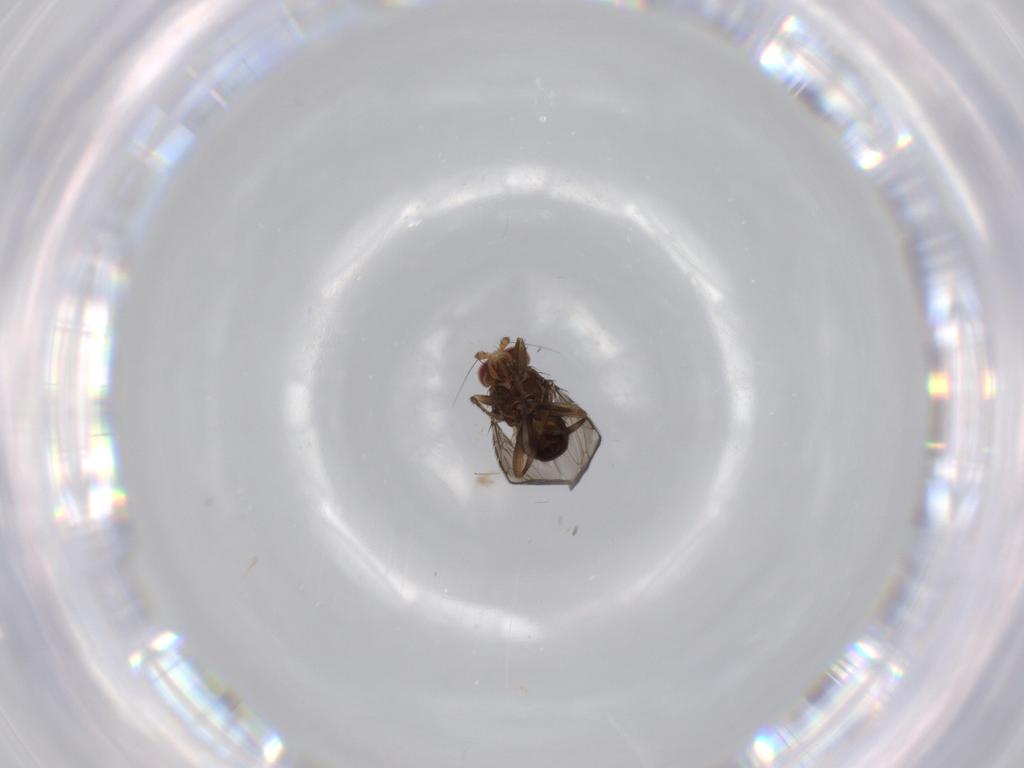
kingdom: Animalia
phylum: Arthropoda
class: Insecta
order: Diptera
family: Sphaeroceridae
